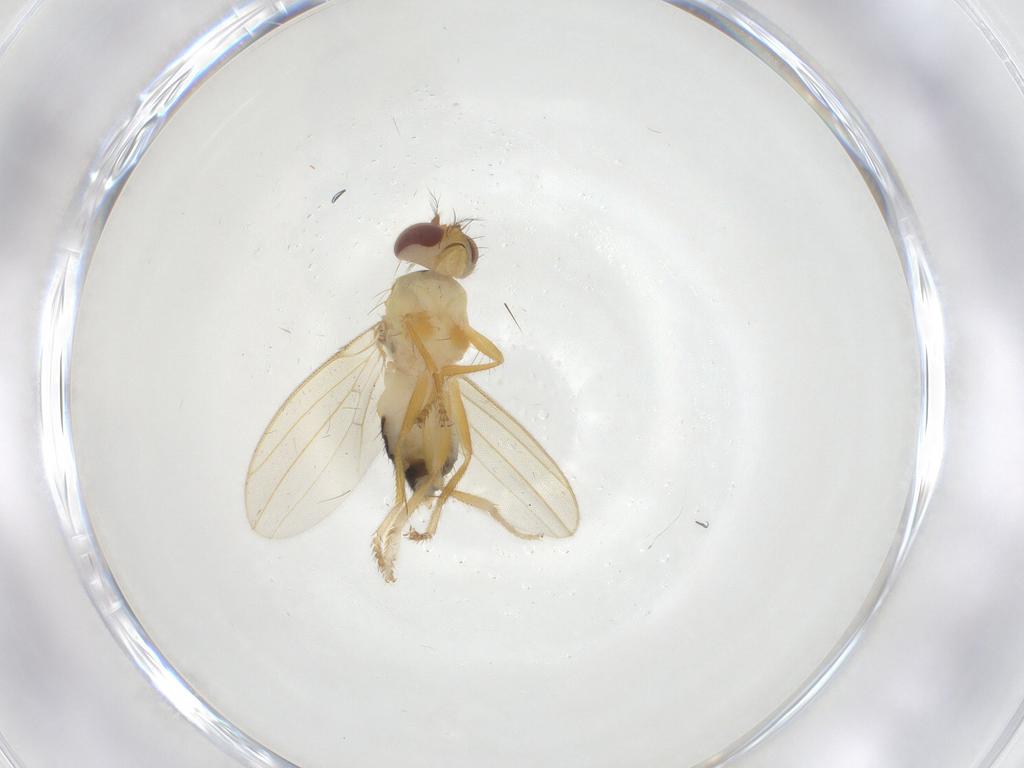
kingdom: Animalia
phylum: Arthropoda
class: Insecta
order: Diptera
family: Periscelididae
